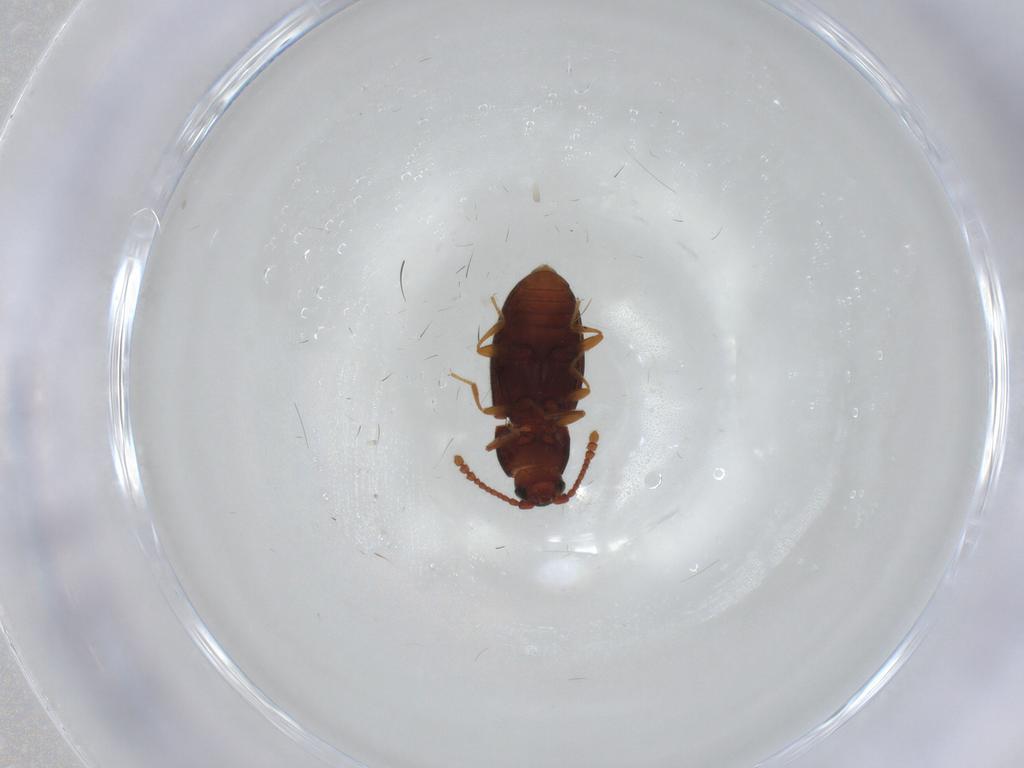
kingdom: Animalia
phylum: Arthropoda
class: Insecta
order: Coleoptera
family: Cryptophagidae
